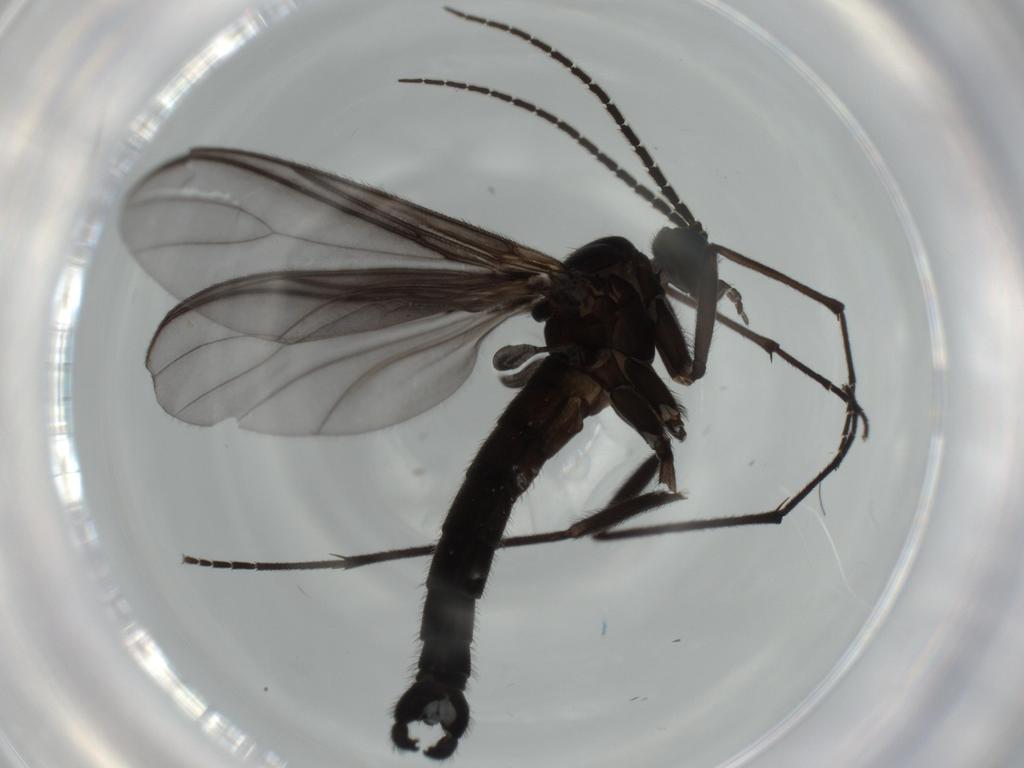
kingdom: Animalia
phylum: Arthropoda
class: Insecta
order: Diptera
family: Sciaridae
